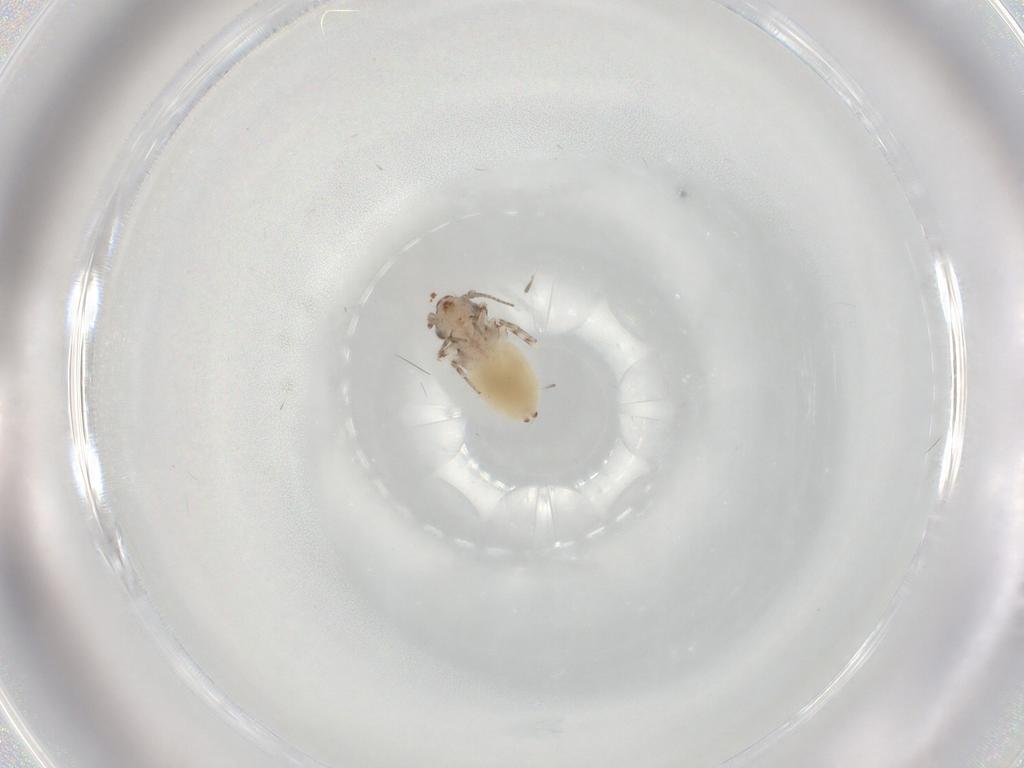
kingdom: Animalia
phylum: Arthropoda
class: Insecta
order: Psocodea
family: Lepidopsocidae
